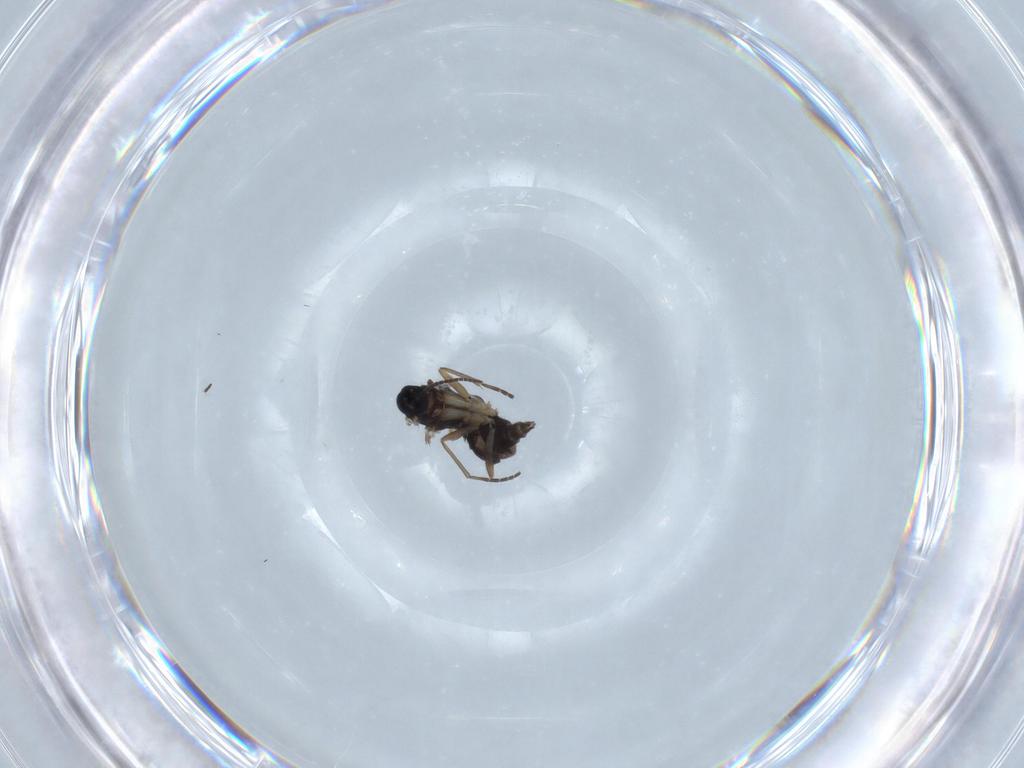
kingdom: Animalia
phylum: Arthropoda
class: Insecta
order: Diptera
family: Sciaridae
